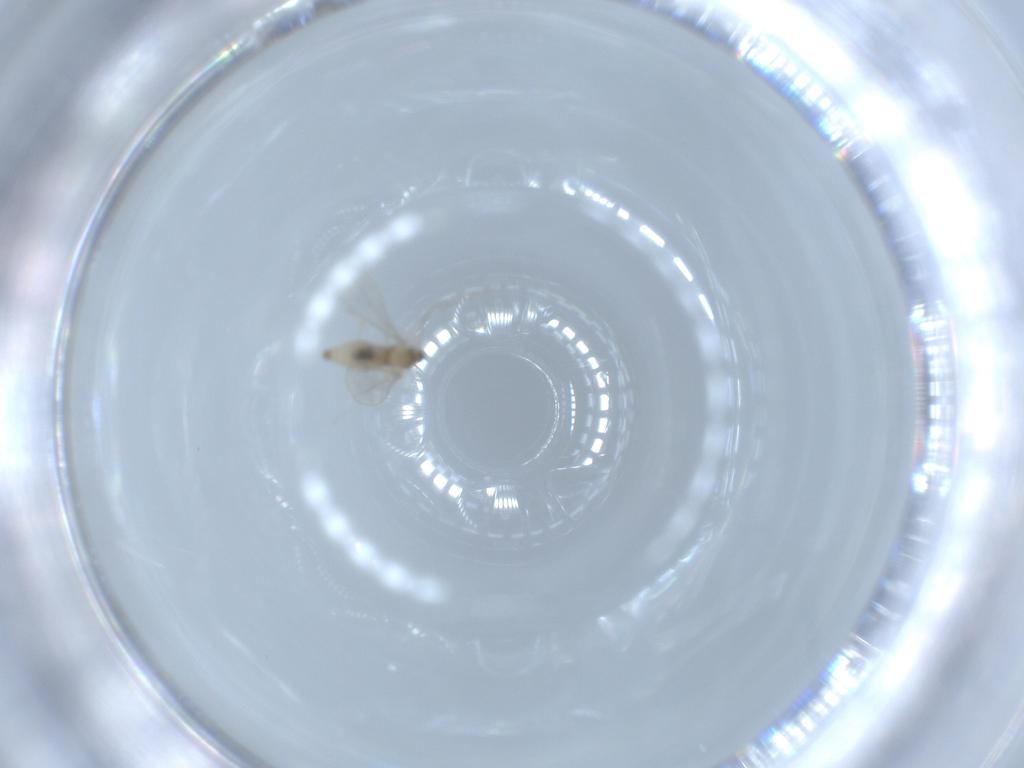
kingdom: Animalia
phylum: Arthropoda
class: Insecta
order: Diptera
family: Cecidomyiidae
